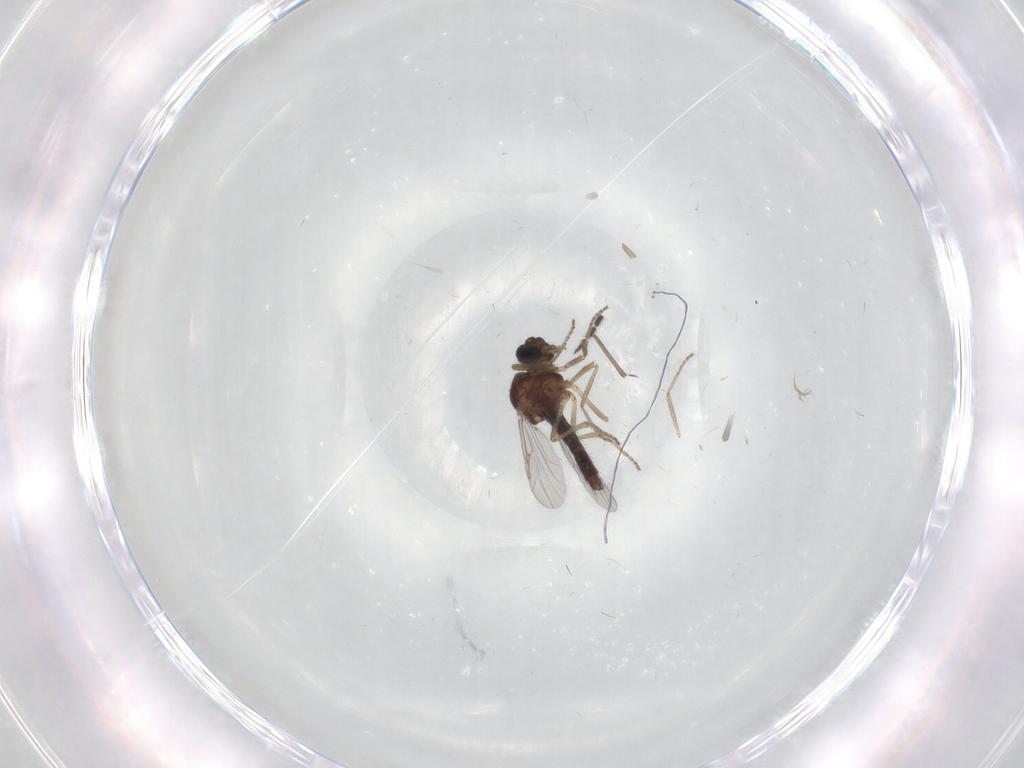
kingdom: Animalia
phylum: Arthropoda
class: Insecta
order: Diptera
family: Ceratopogonidae
